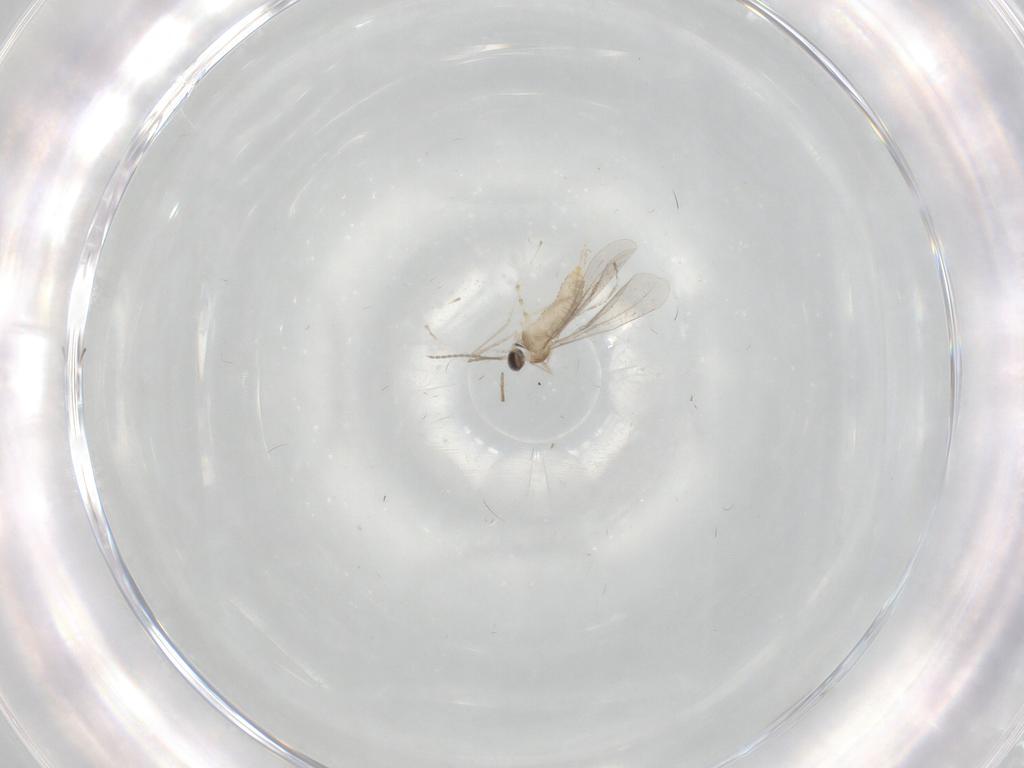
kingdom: Animalia
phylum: Arthropoda
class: Insecta
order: Diptera
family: Cecidomyiidae
